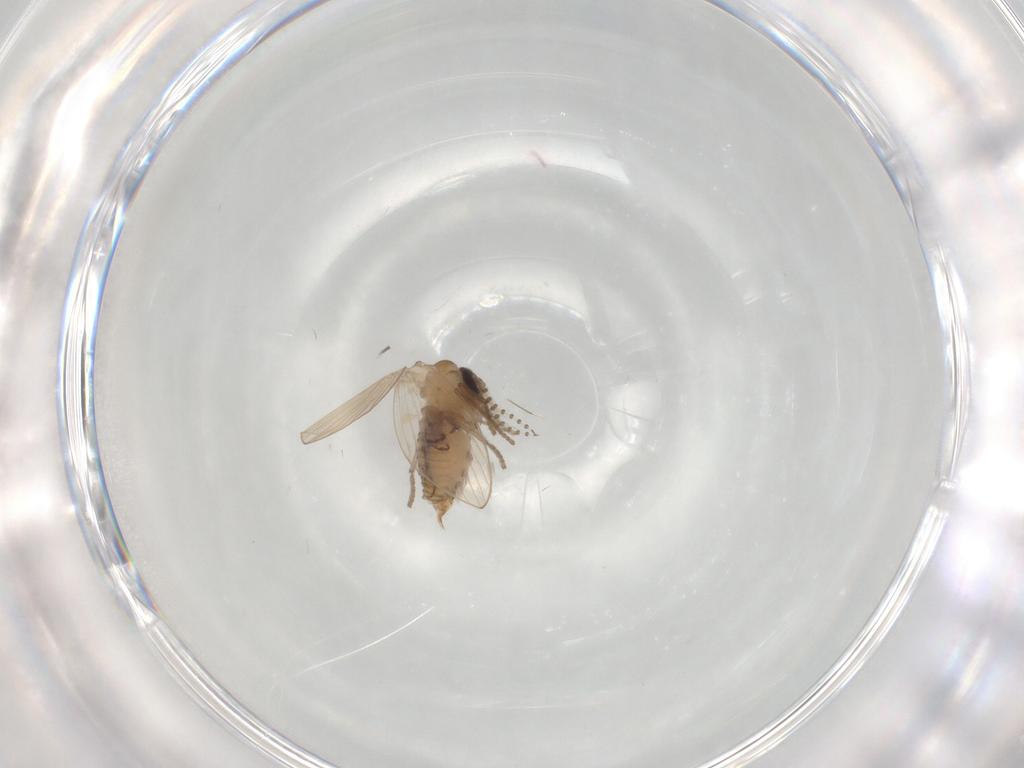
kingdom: Animalia
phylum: Arthropoda
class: Insecta
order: Diptera
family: Psychodidae
